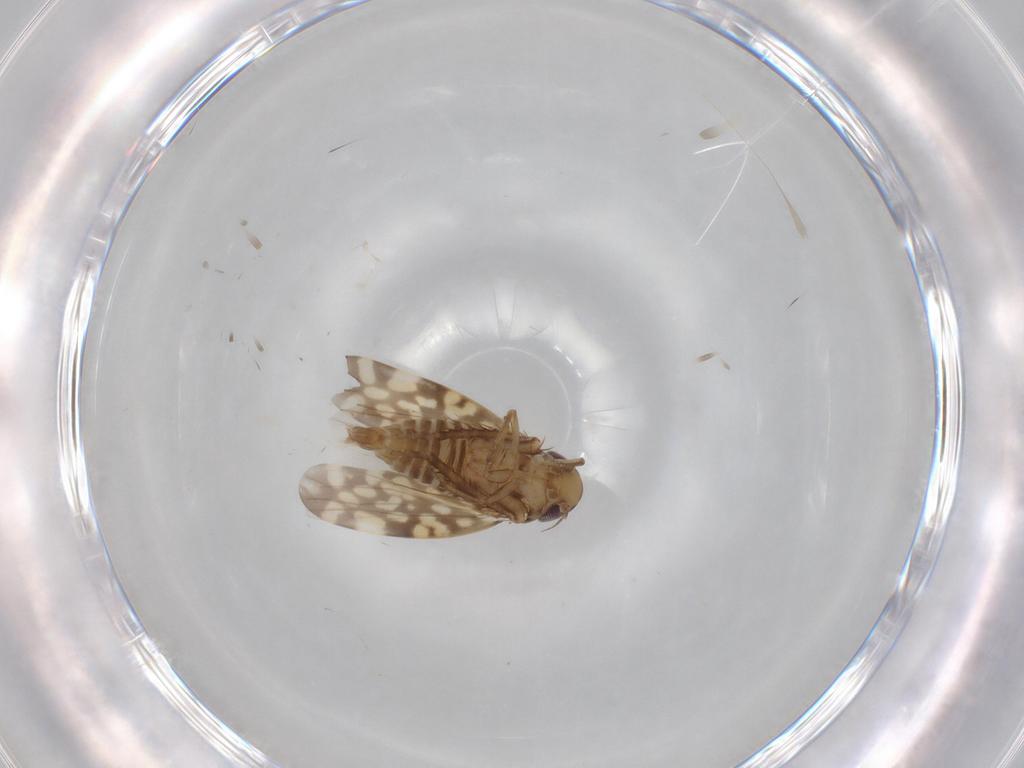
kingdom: Animalia
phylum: Arthropoda
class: Insecta
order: Hemiptera
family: Cicadellidae
